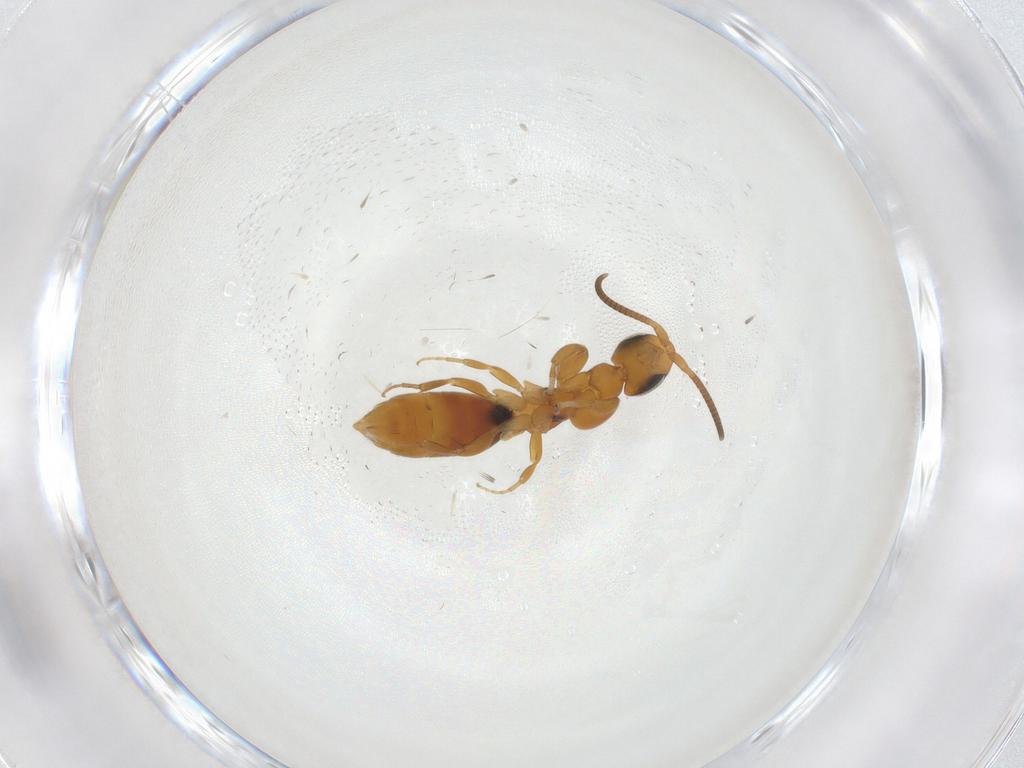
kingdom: Animalia
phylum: Arthropoda
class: Insecta
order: Hymenoptera
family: Sclerogibbidae
